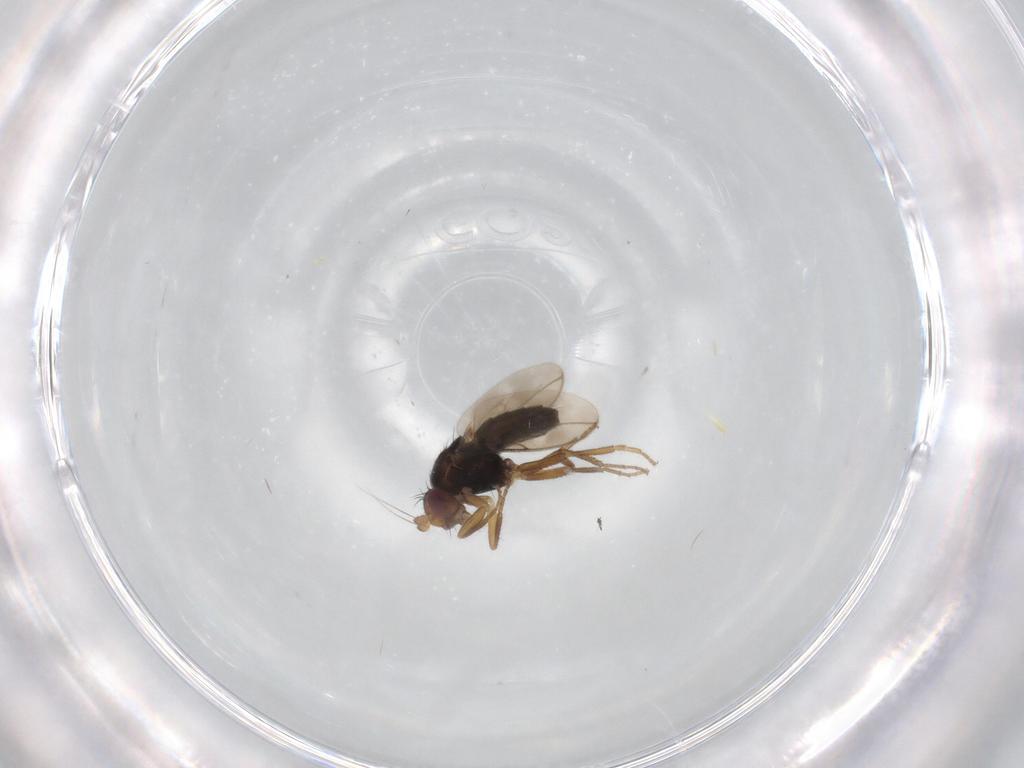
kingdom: Animalia
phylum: Arthropoda
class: Insecta
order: Diptera
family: Sphaeroceridae
